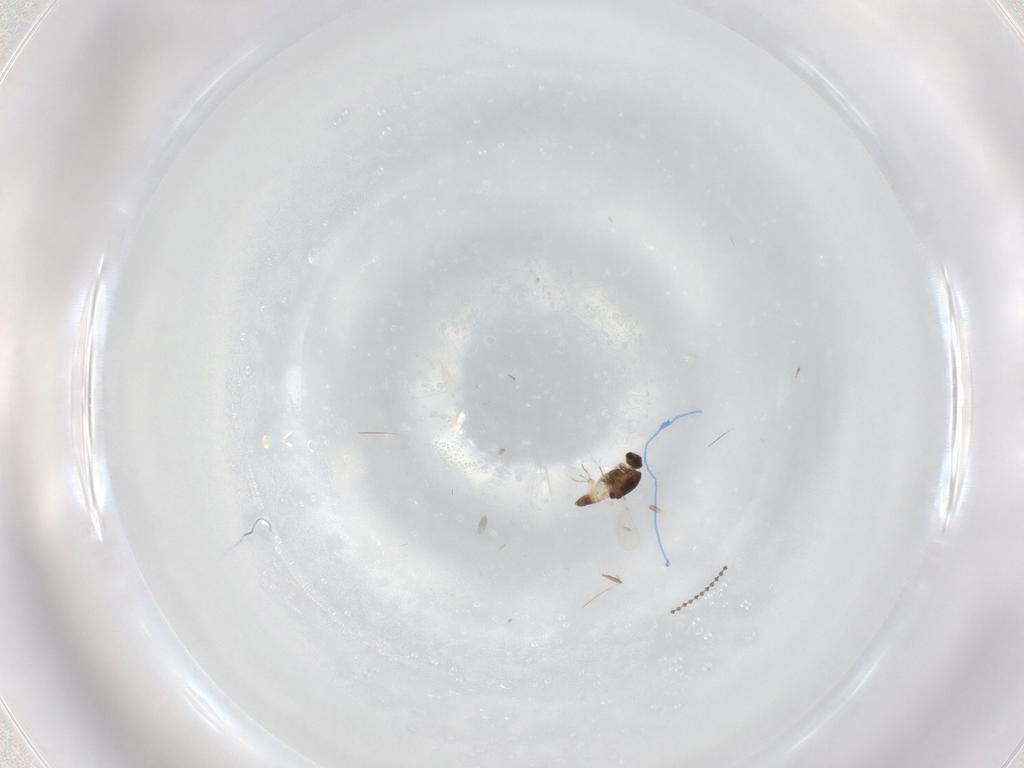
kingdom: Animalia
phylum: Arthropoda
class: Insecta
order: Diptera
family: Chironomidae
